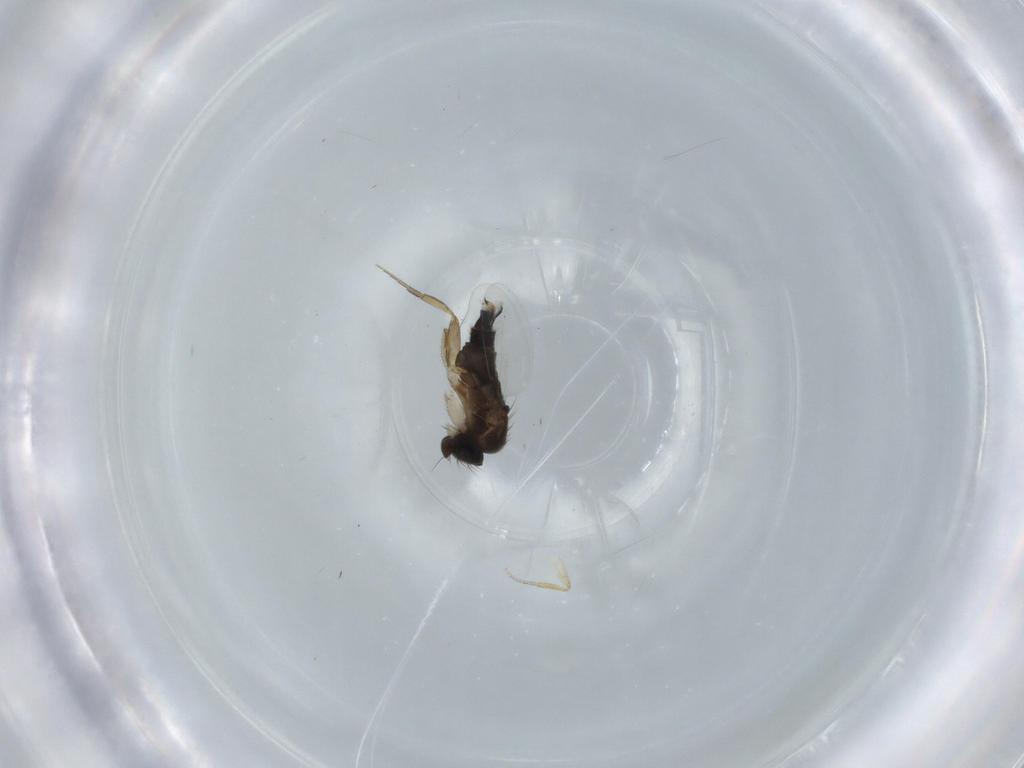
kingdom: Animalia
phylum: Arthropoda
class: Insecta
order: Diptera
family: Phoridae
